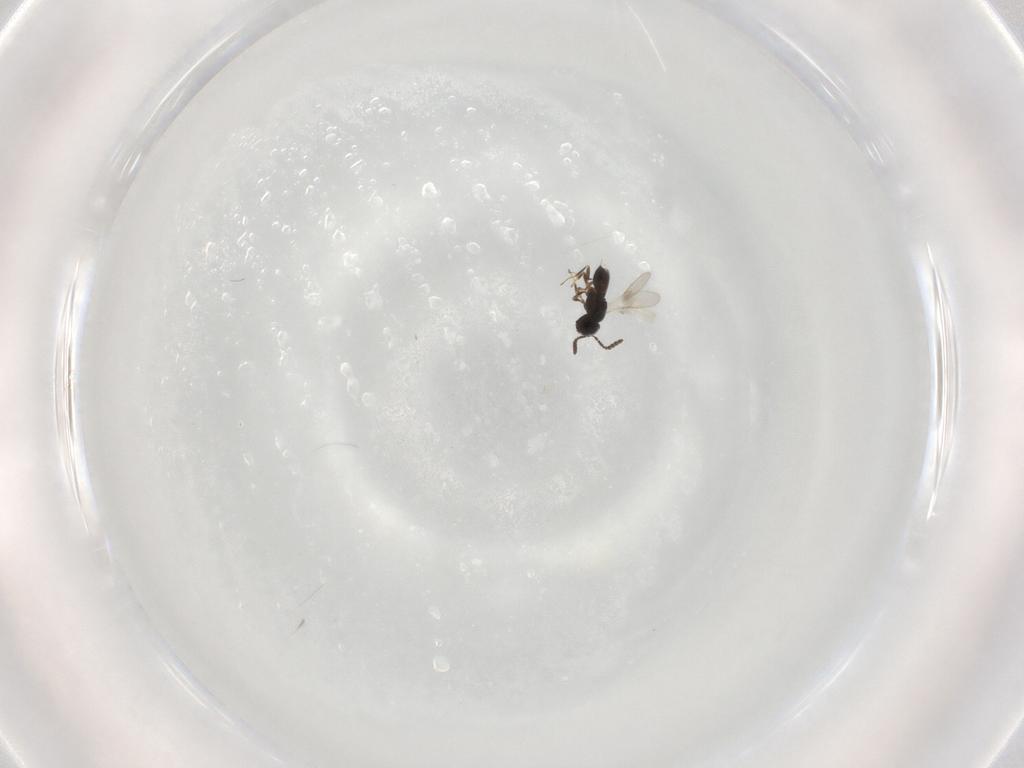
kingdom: Animalia
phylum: Arthropoda
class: Insecta
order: Hymenoptera
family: Scelionidae
